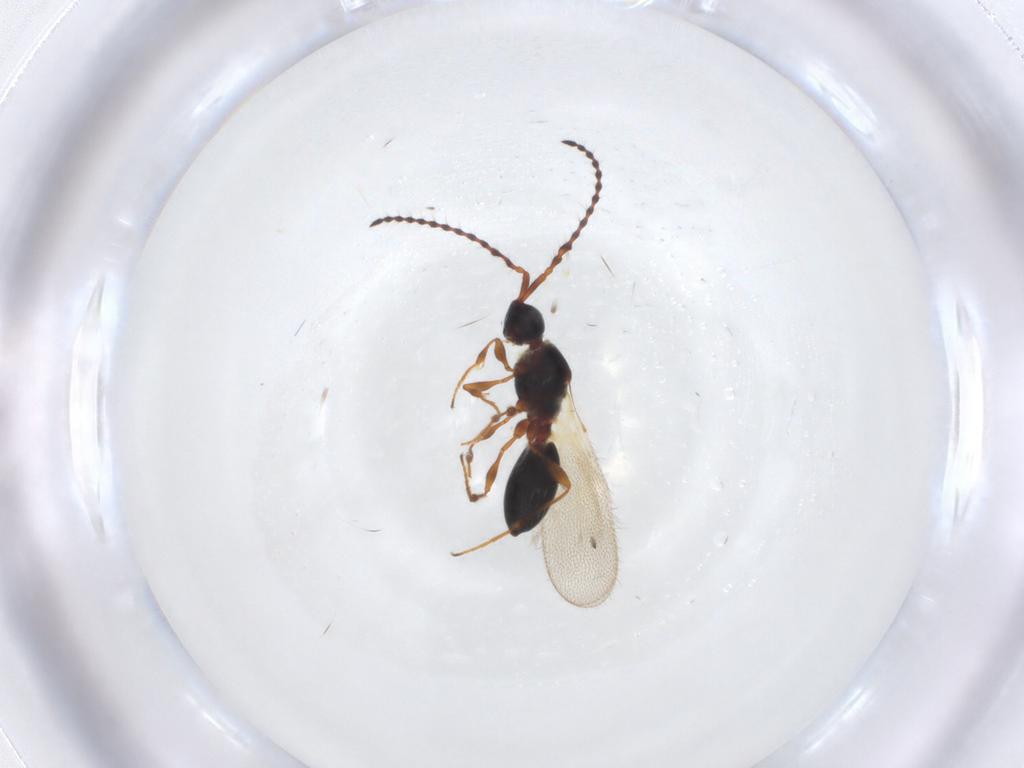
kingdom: Animalia
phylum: Arthropoda
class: Insecta
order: Hymenoptera
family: Diapriidae
